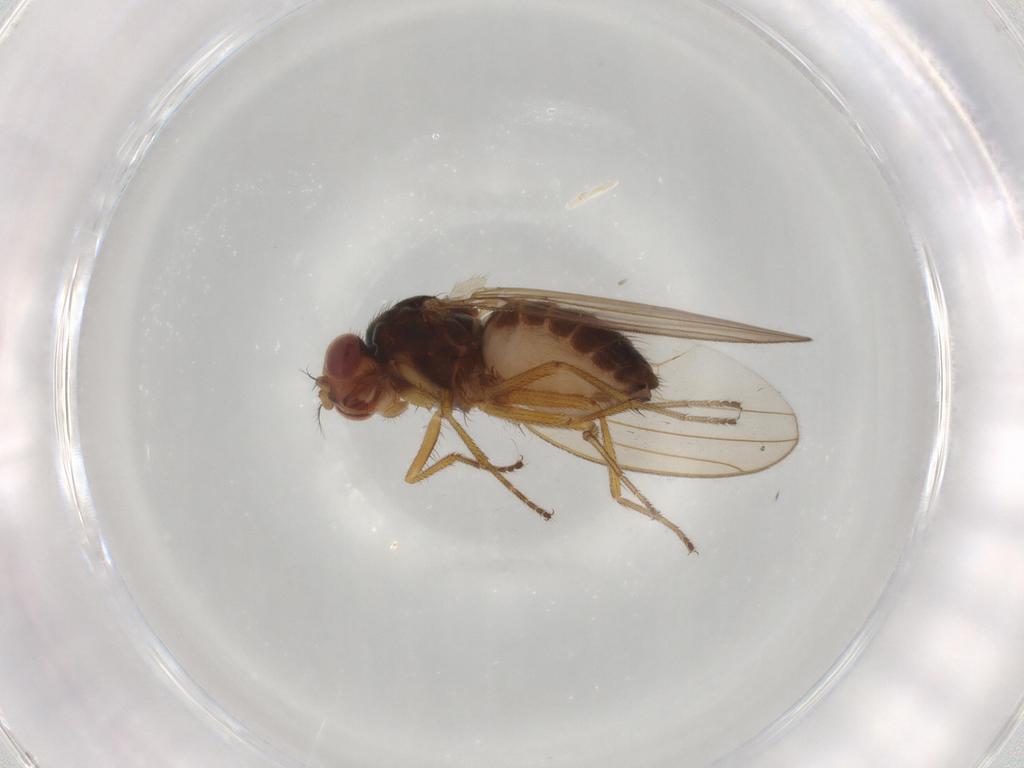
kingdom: Animalia
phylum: Arthropoda
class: Insecta
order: Diptera
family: Drosophilidae
